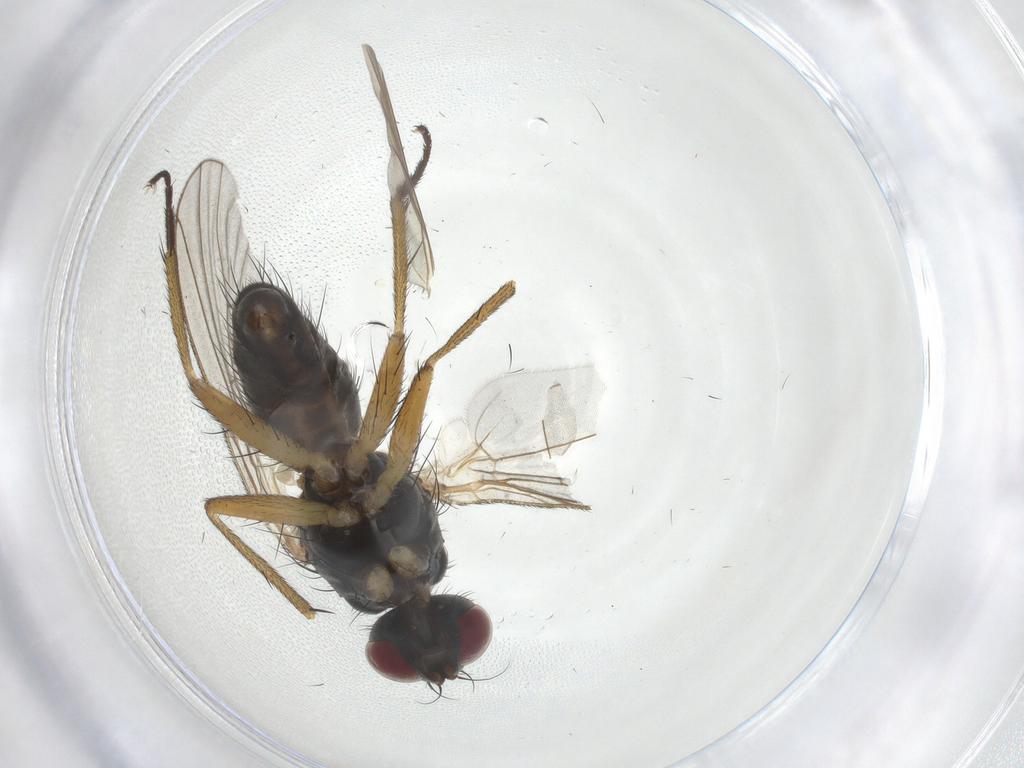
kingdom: Animalia
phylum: Arthropoda
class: Insecta
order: Diptera
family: Muscidae
